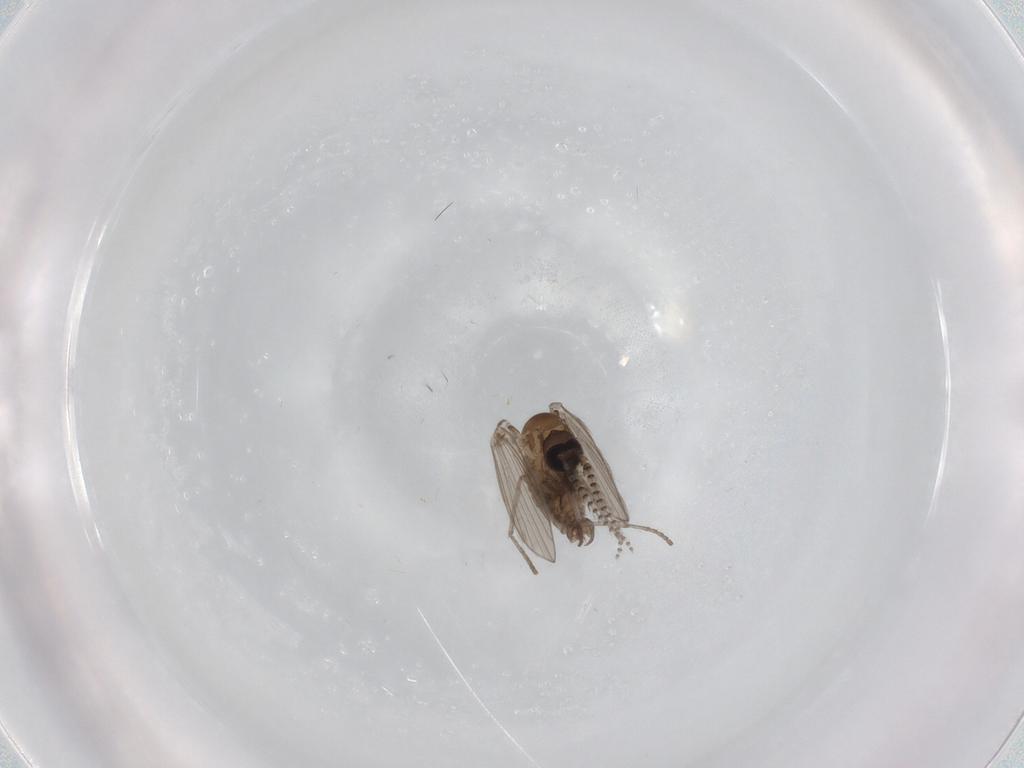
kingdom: Animalia
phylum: Arthropoda
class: Insecta
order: Diptera
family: Psychodidae
